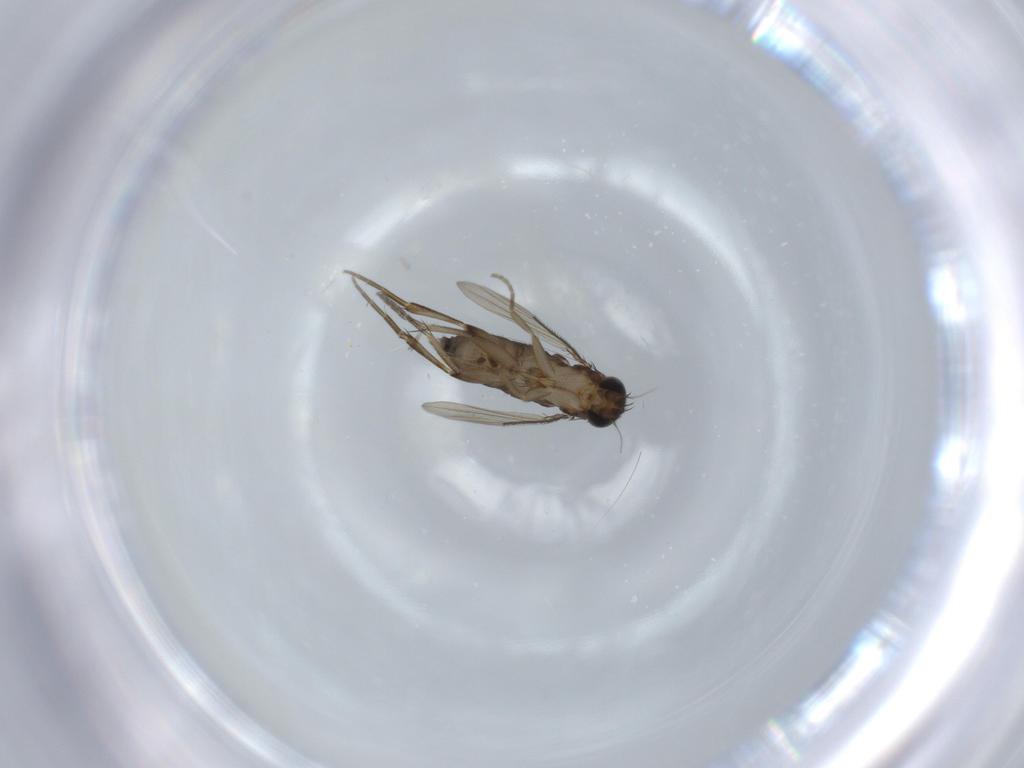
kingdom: Animalia
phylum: Arthropoda
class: Insecta
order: Diptera
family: Phoridae
